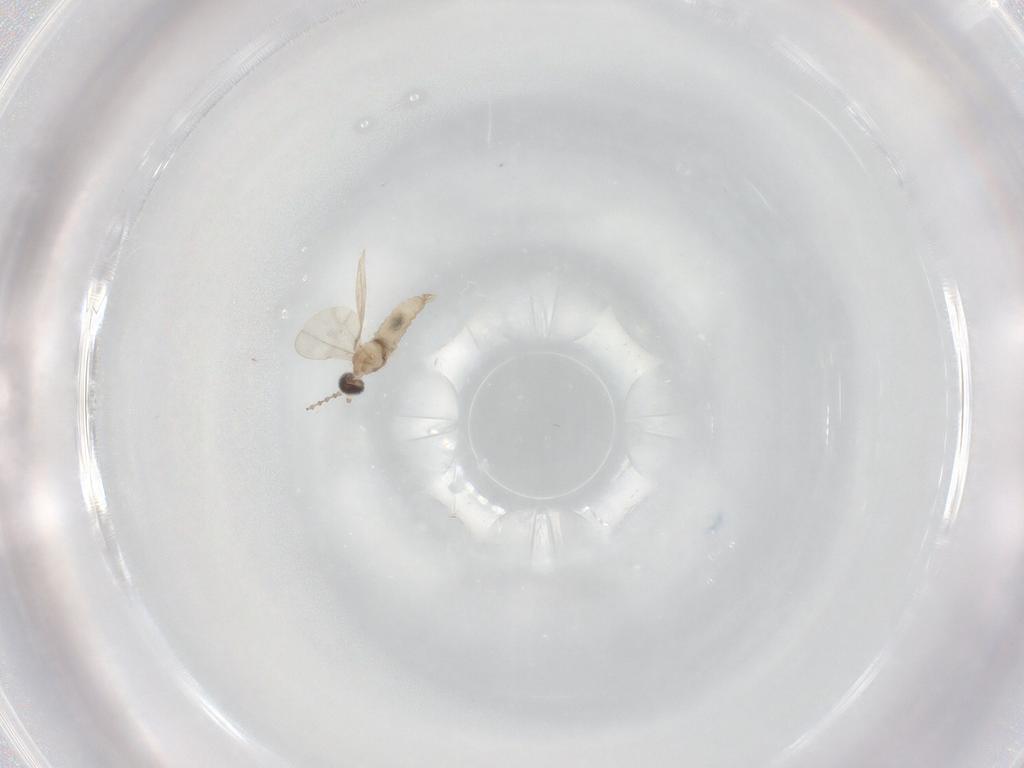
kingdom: Animalia
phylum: Arthropoda
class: Insecta
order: Diptera
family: Cecidomyiidae
